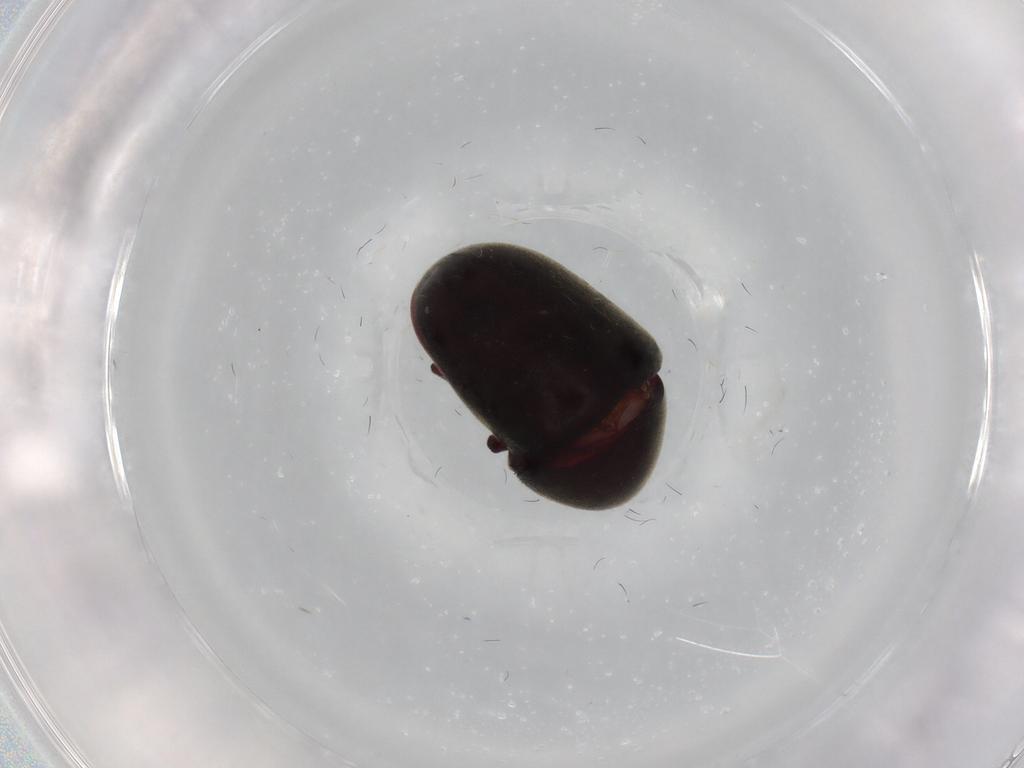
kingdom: Animalia
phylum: Arthropoda
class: Insecta
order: Coleoptera
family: Ptinidae
